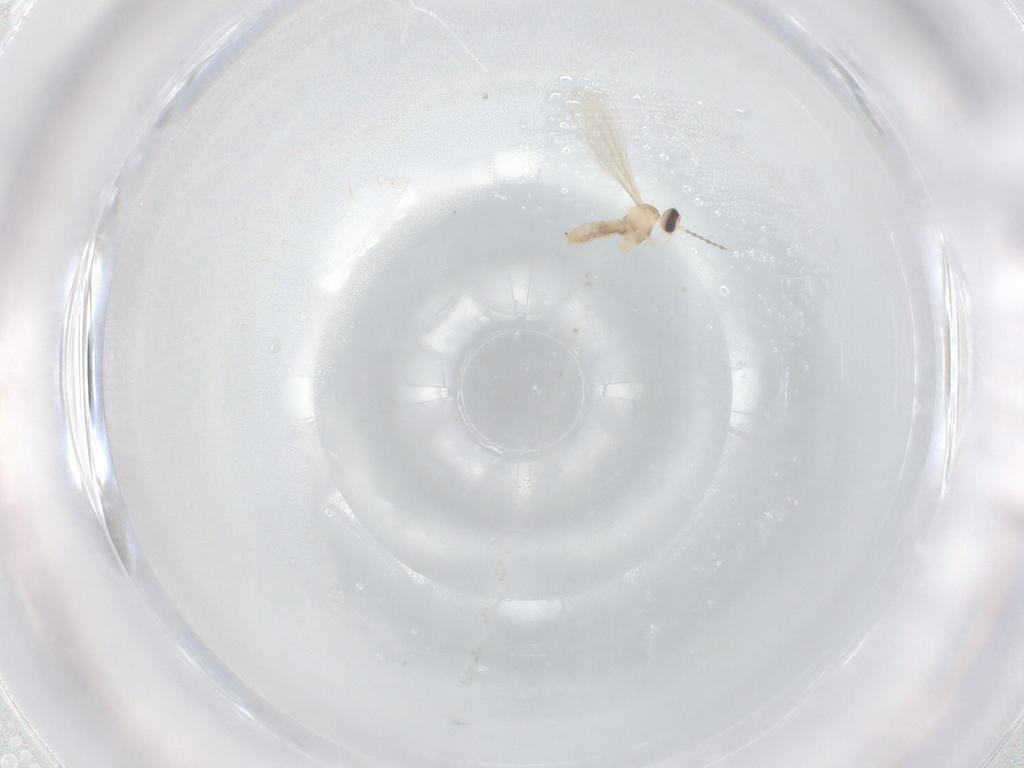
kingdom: Animalia
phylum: Arthropoda
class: Insecta
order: Diptera
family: Cecidomyiidae
